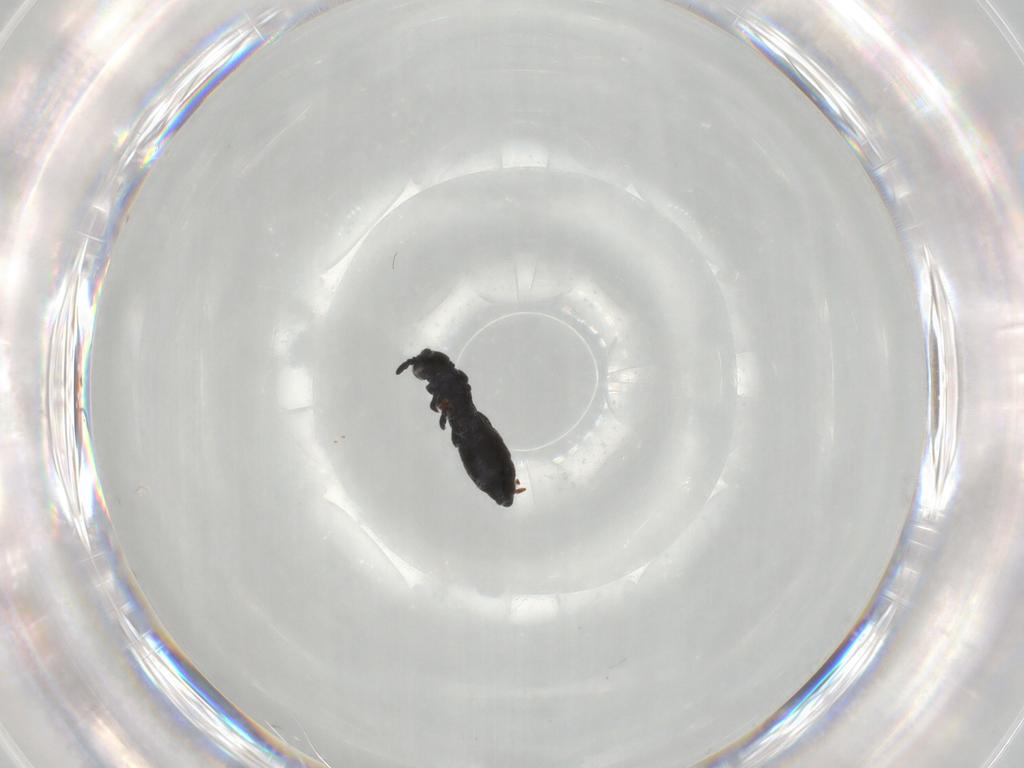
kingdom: Animalia
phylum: Arthropoda
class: Collembola
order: Poduromorpha
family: Hypogastruridae
